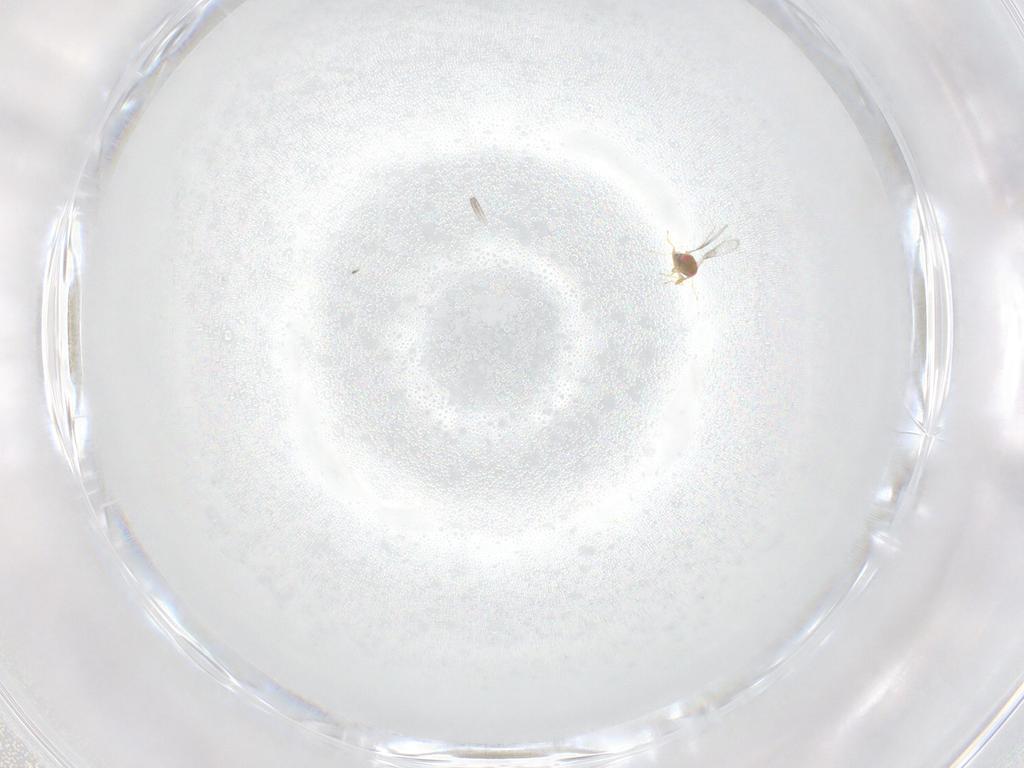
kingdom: Animalia
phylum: Arthropoda
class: Insecta
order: Hymenoptera
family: Trichogrammatidae
